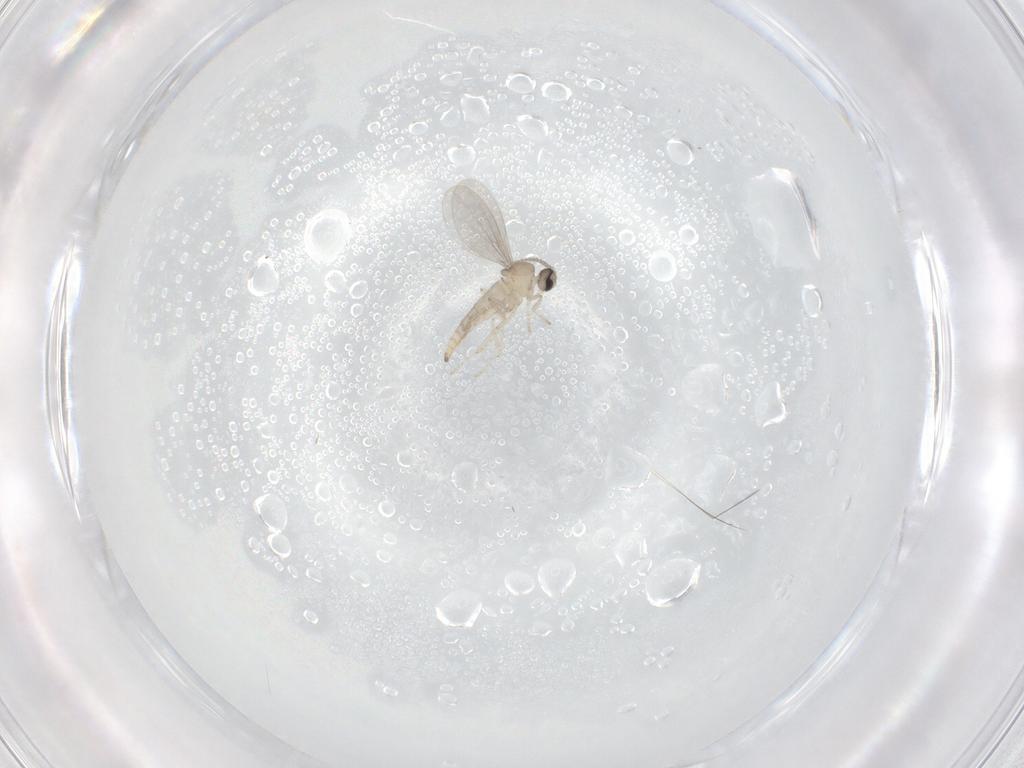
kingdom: Animalia
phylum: Arthropoda
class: Insecta
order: Diptera
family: Cecidomyiidae
